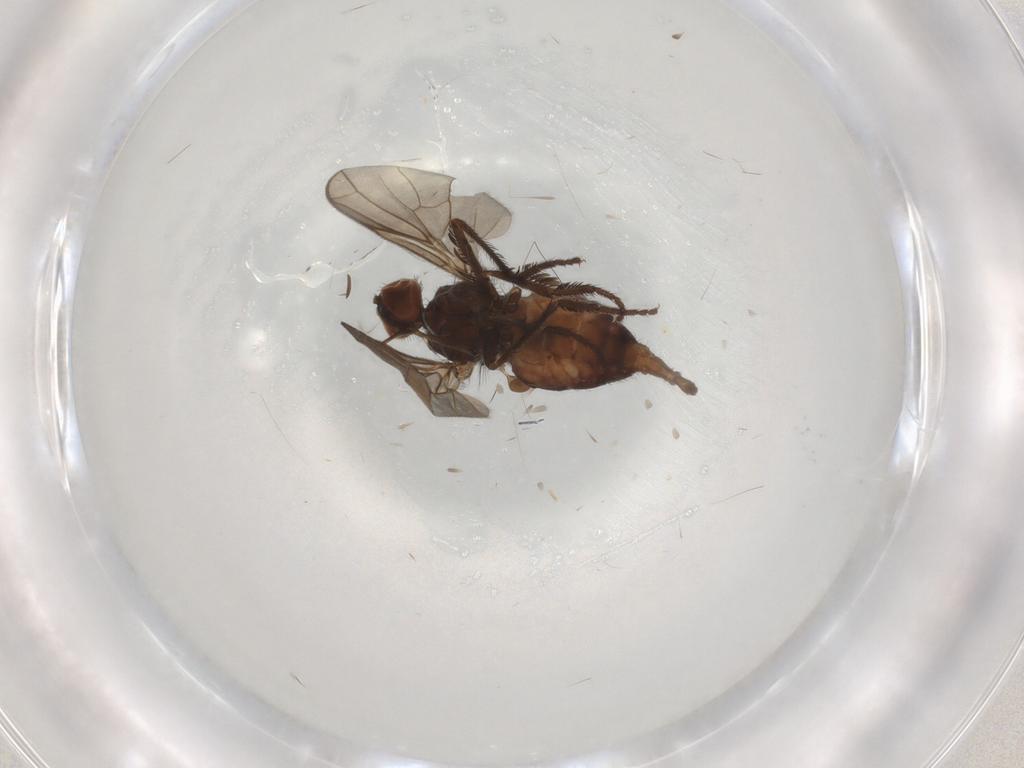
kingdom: Animalia
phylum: Arthropoda
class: Insecta
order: Diptera
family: Empididae
